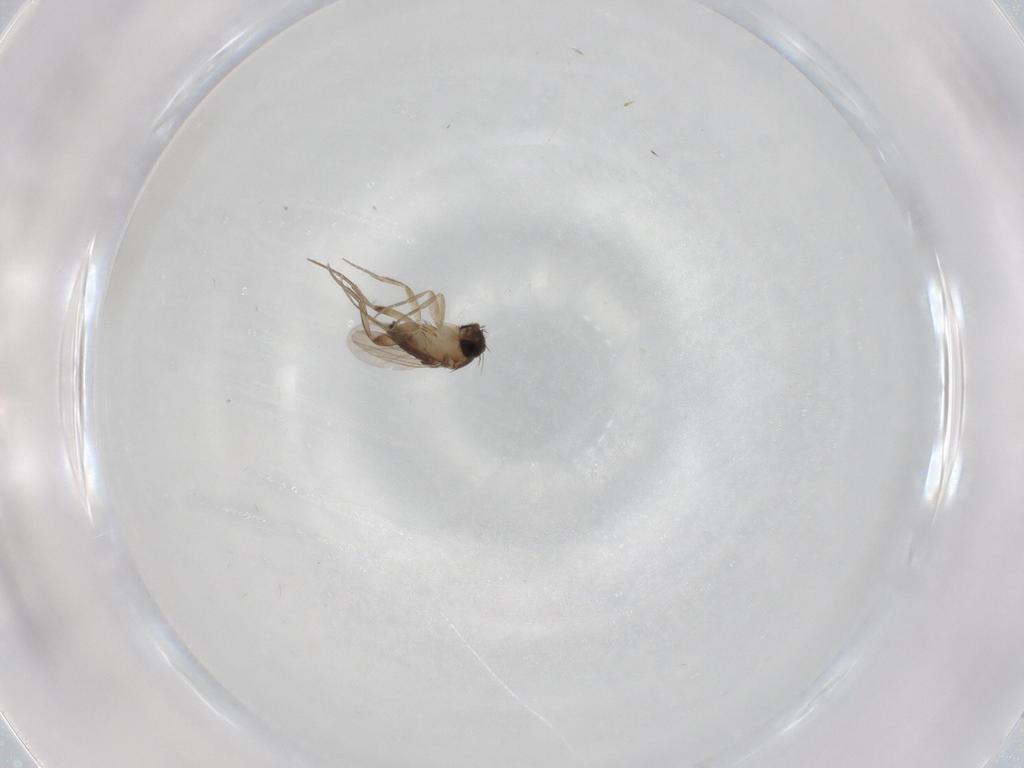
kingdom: Animalia
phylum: Arthropoda
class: Insecta
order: Diptera
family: Phoridae
